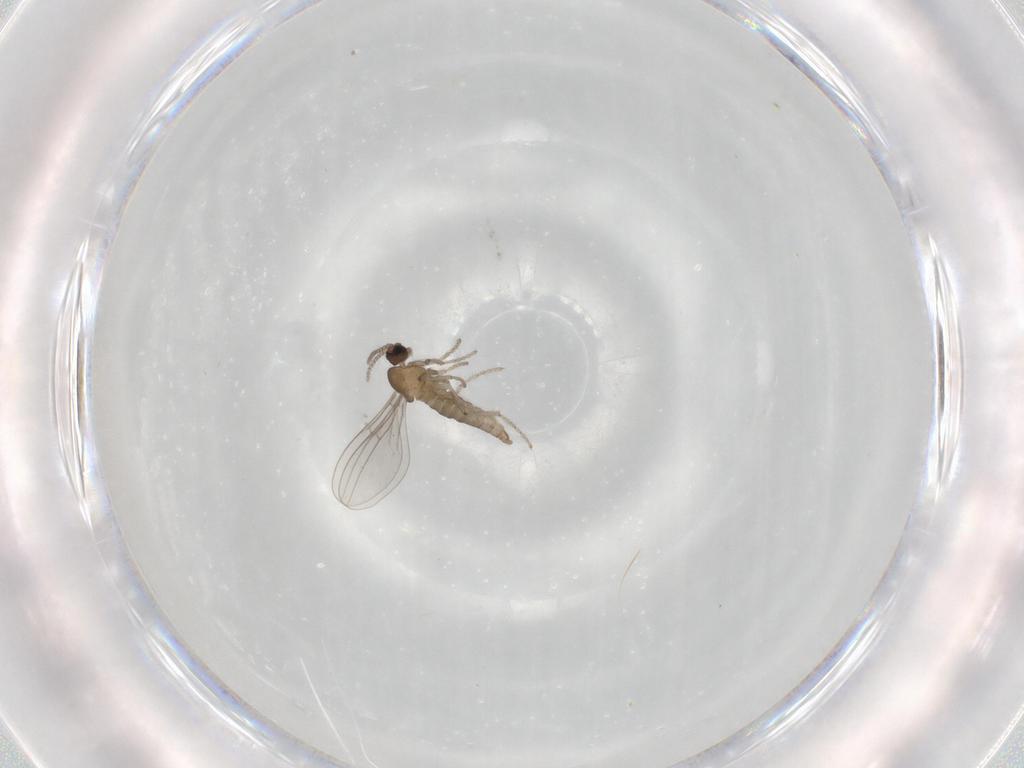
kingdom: Animalia
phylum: Arthropoda
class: Insecta
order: Diptera
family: Cecidomyiidae
